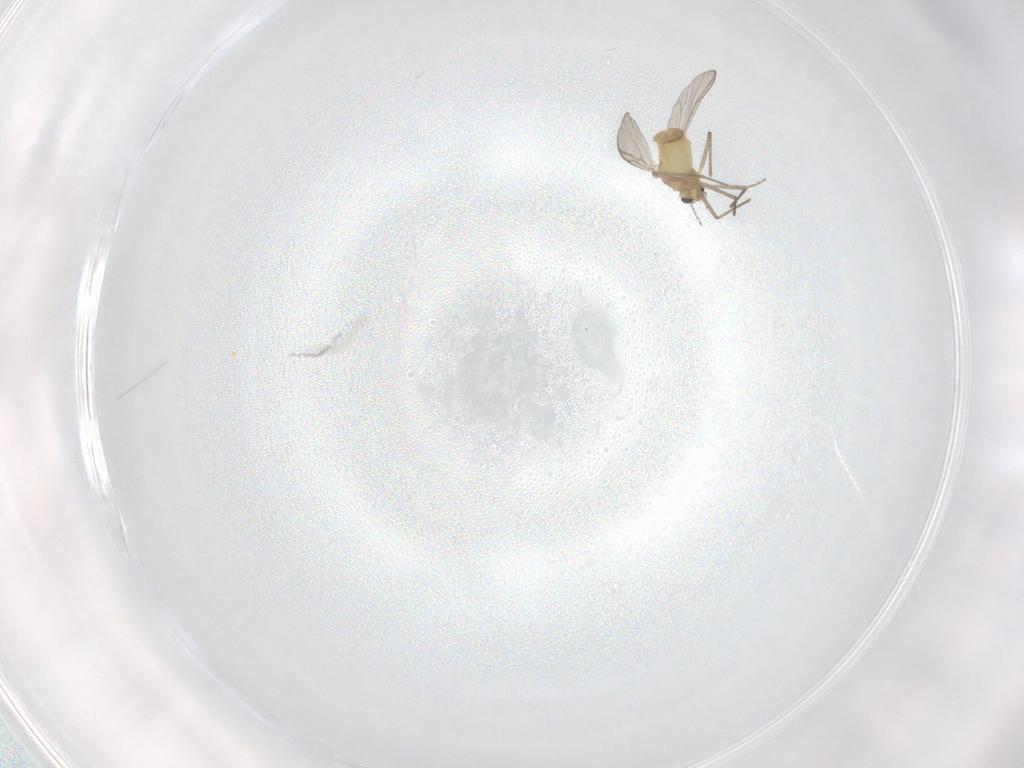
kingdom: Animalia
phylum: Arthropoda
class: Insecta
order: Diptera
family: Chironomidae
